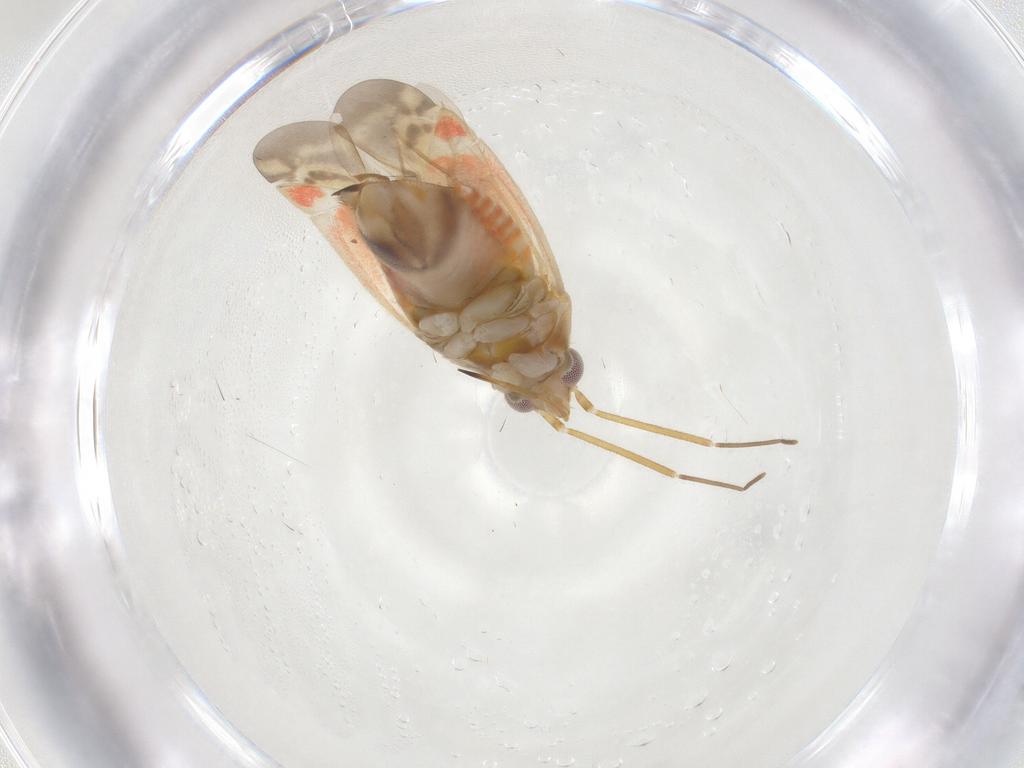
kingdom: Animalia
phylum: Arthropoda
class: Insecta
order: Hemiptera
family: Miridae
